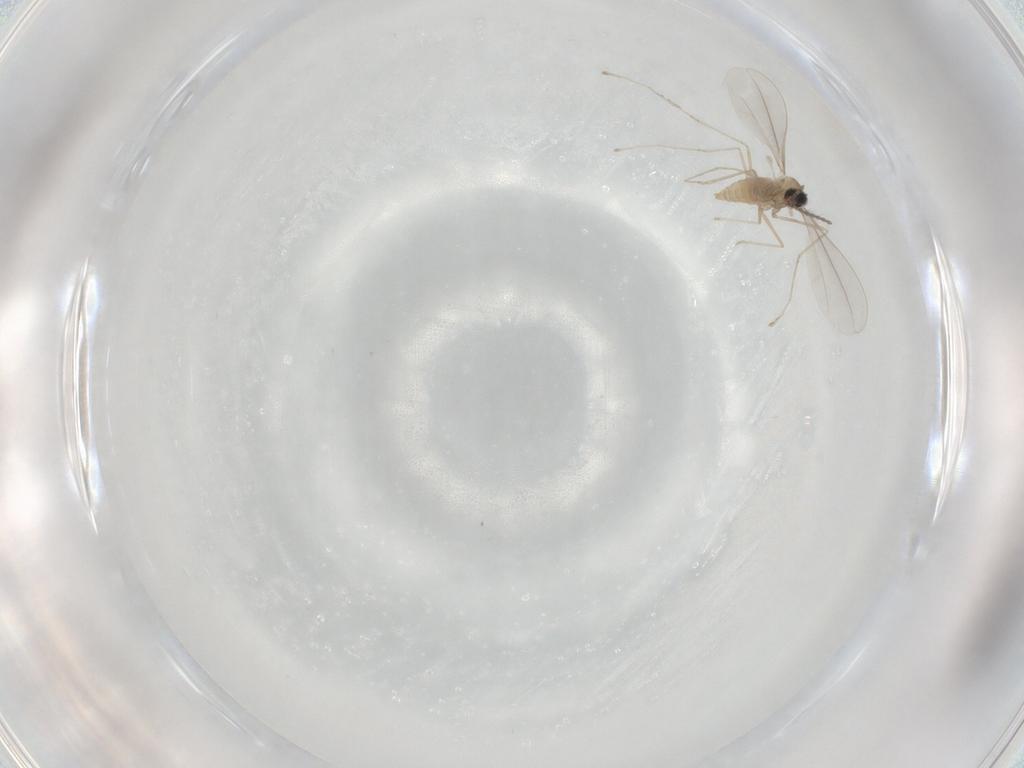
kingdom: Animalia
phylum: Arthropoda
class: Insecta
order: Diptera
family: Cecidomyiidae
